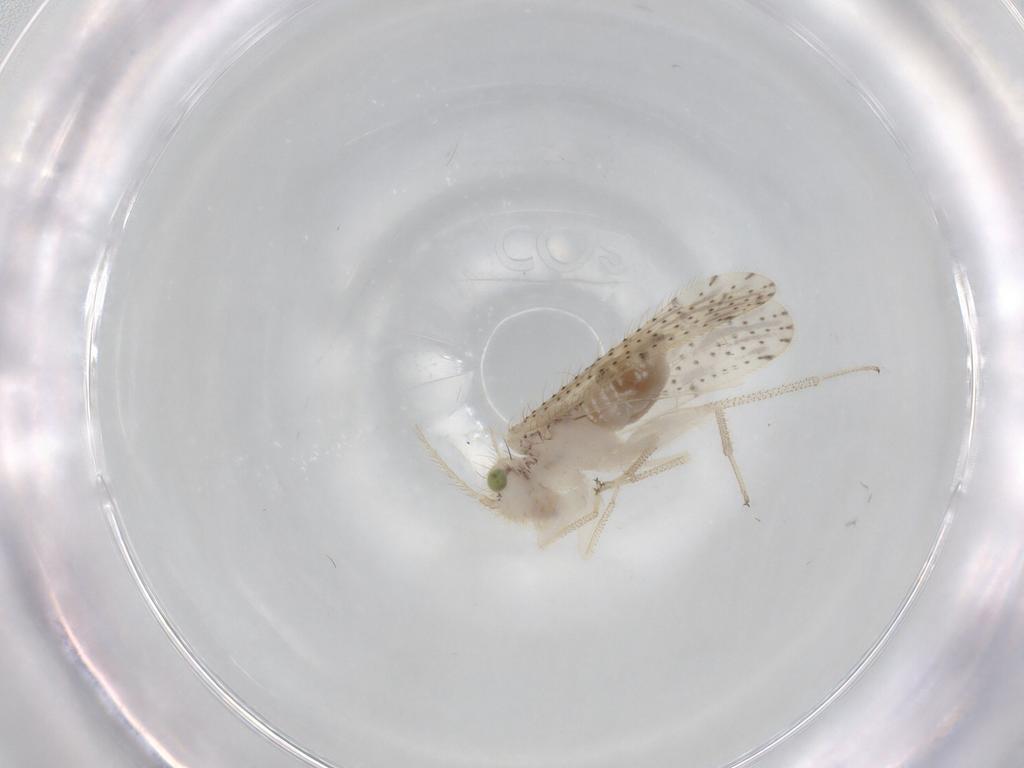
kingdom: Animalia
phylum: Arthropoda
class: Insecta
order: Psocodea
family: Myopsocidae
